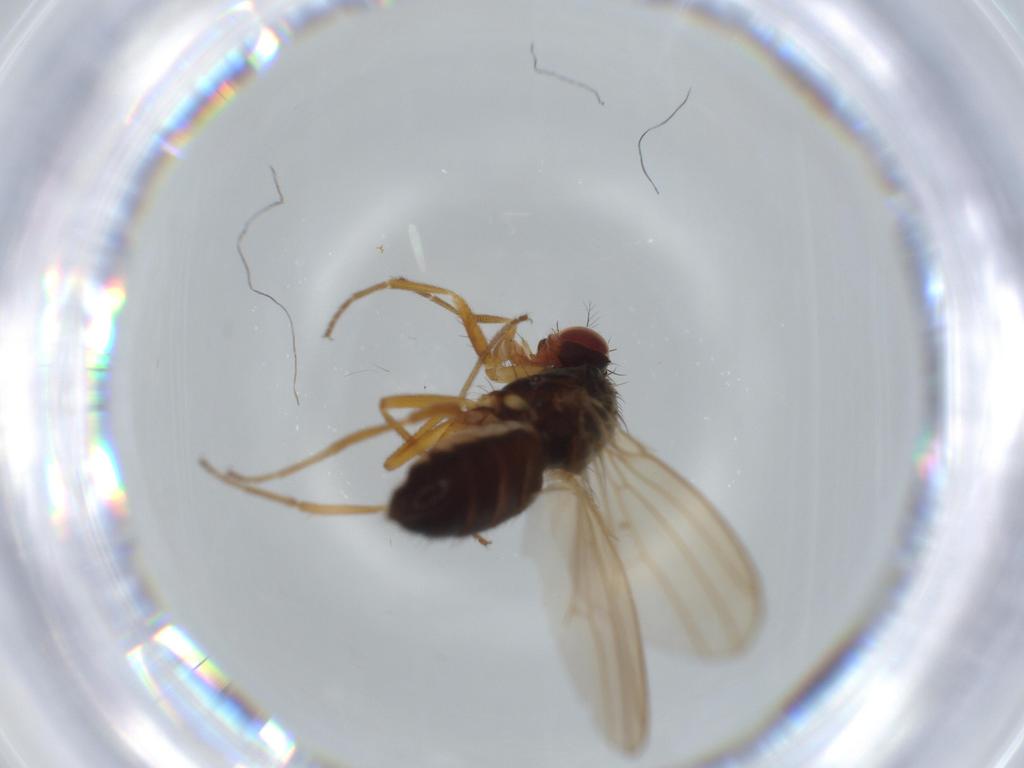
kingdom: Animalia
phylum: Arthropoda
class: Insecta
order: Diptera
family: Drosophilidae
